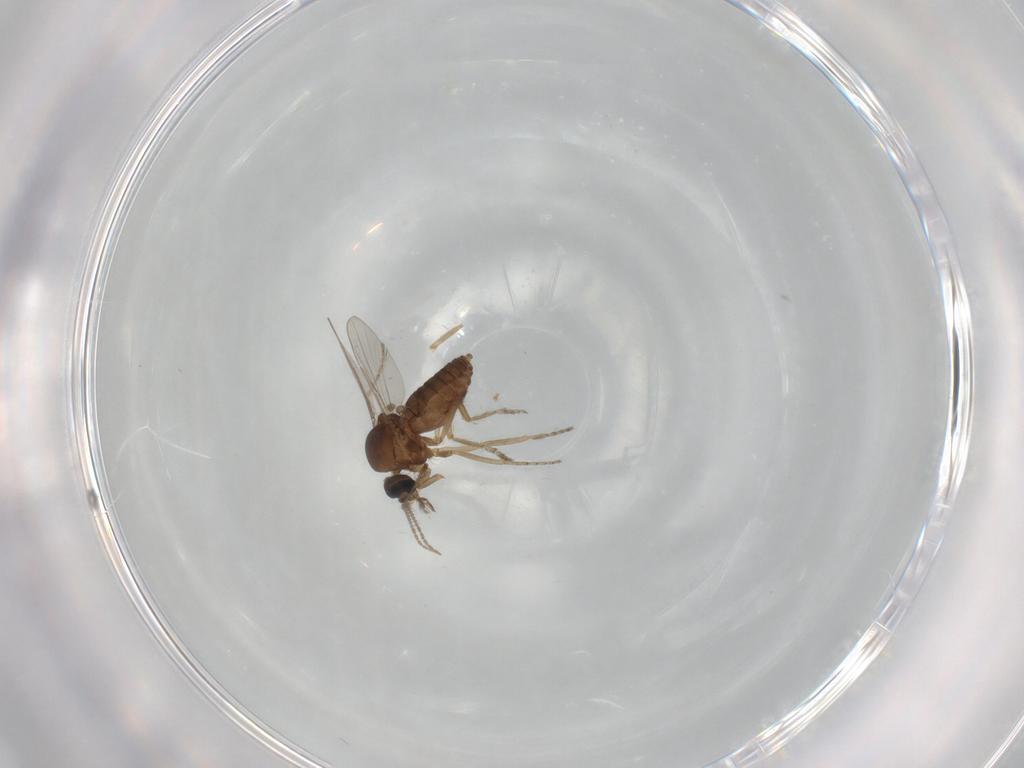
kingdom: Animalia
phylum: Arthropoda
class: Insecta
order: Diptera
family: Ceratopogonidae
